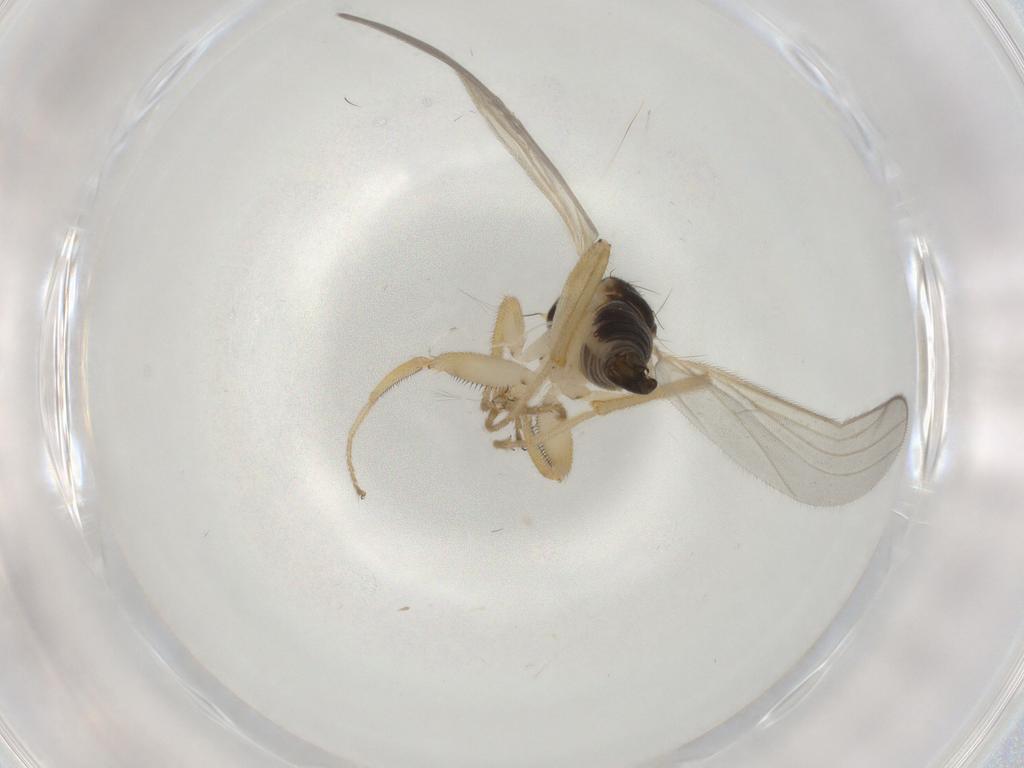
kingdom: Animalia
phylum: Arthropoda
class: Insecta
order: Diptera
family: Hybotidae
